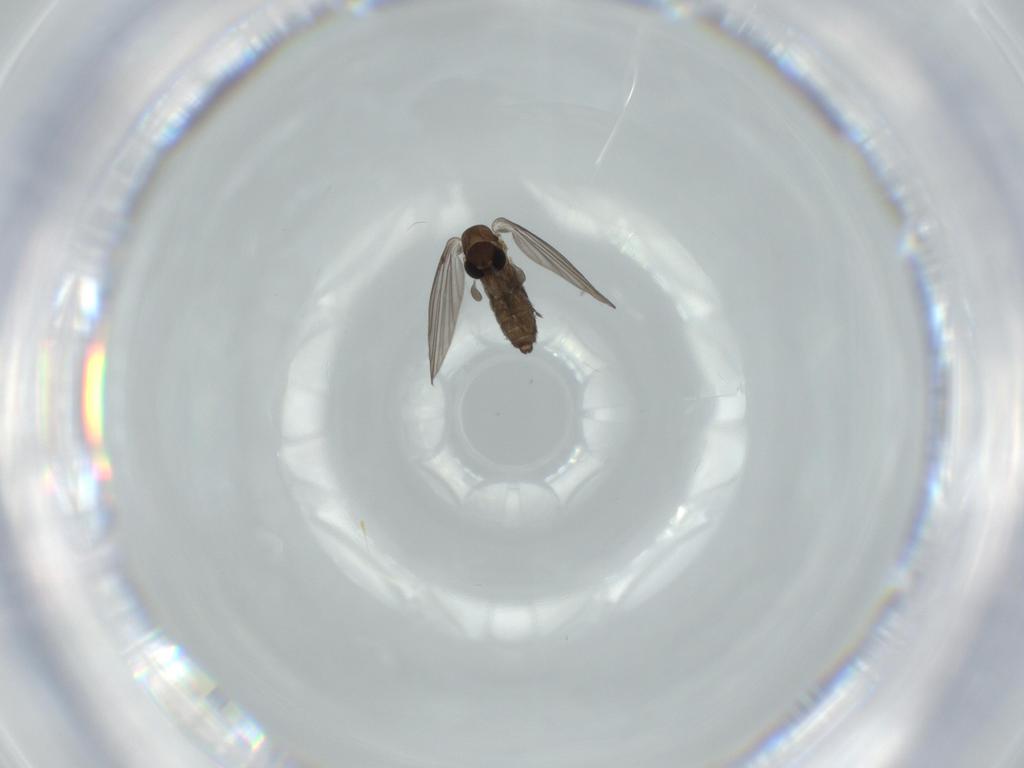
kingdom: Animalia
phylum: Arthropoda
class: Insecta
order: Diptera
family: Psychodidae
